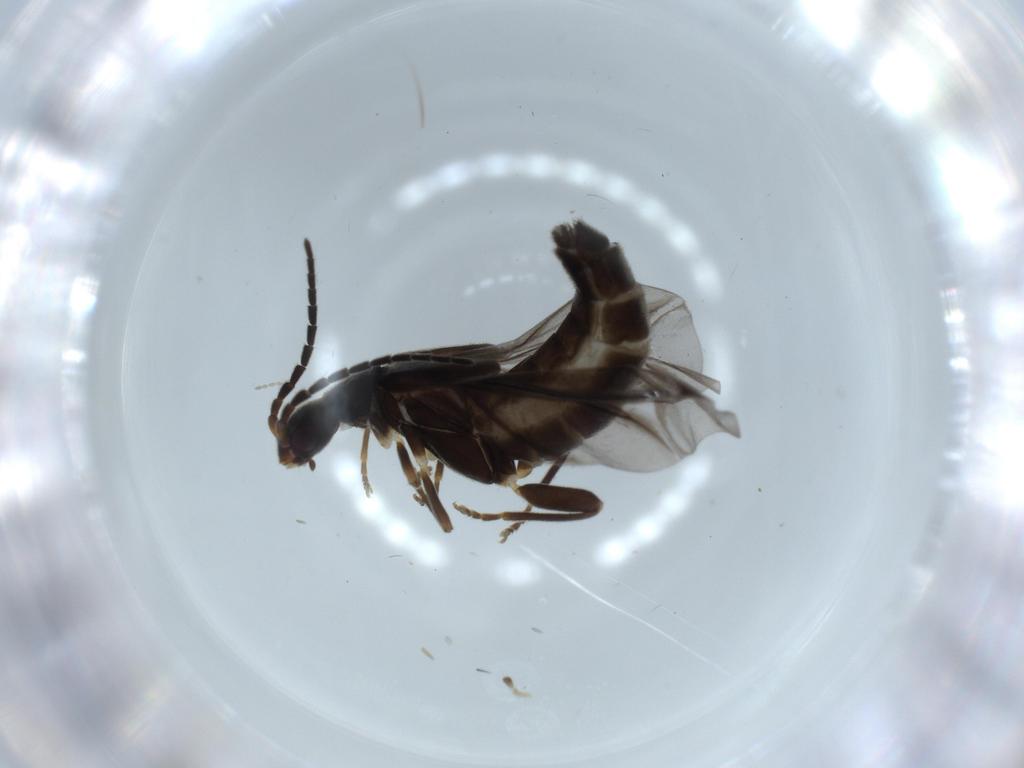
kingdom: Animalia
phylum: Arthropoda
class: Insecta
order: Coleoptera
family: Cantharidae
